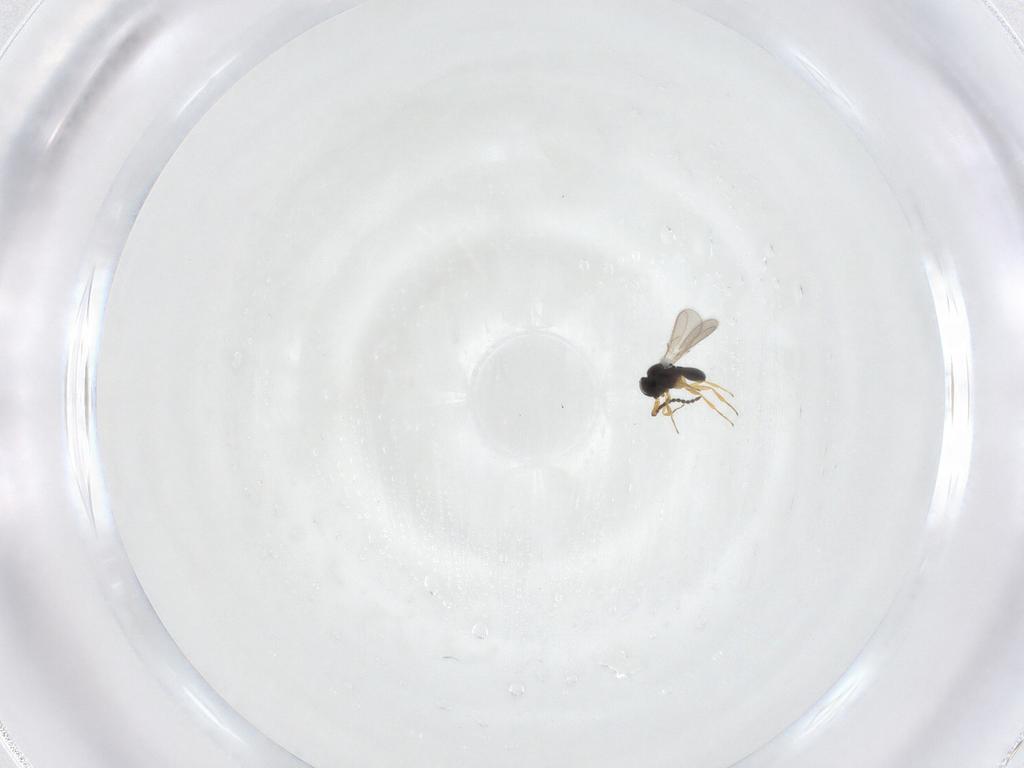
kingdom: Animalia
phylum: Arthropoda
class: Insecta
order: Hymenoptera
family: Scelionidae
